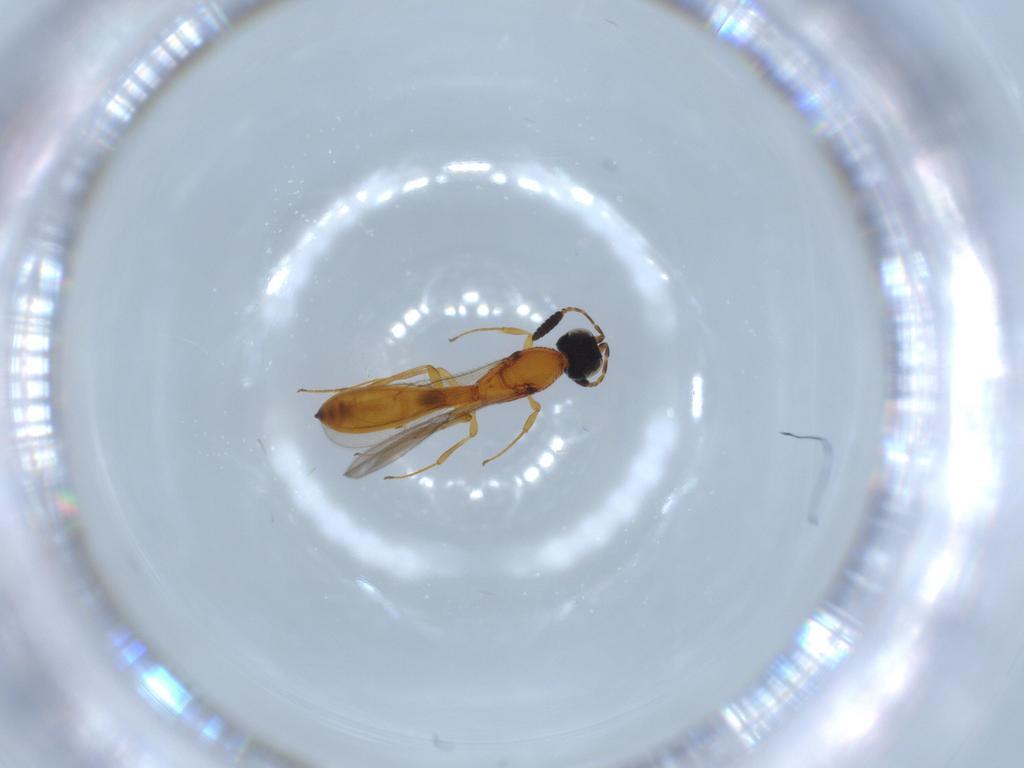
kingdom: Animalia
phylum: Arthropoda
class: Insecta
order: Hymenoptera
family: Scelionidae
